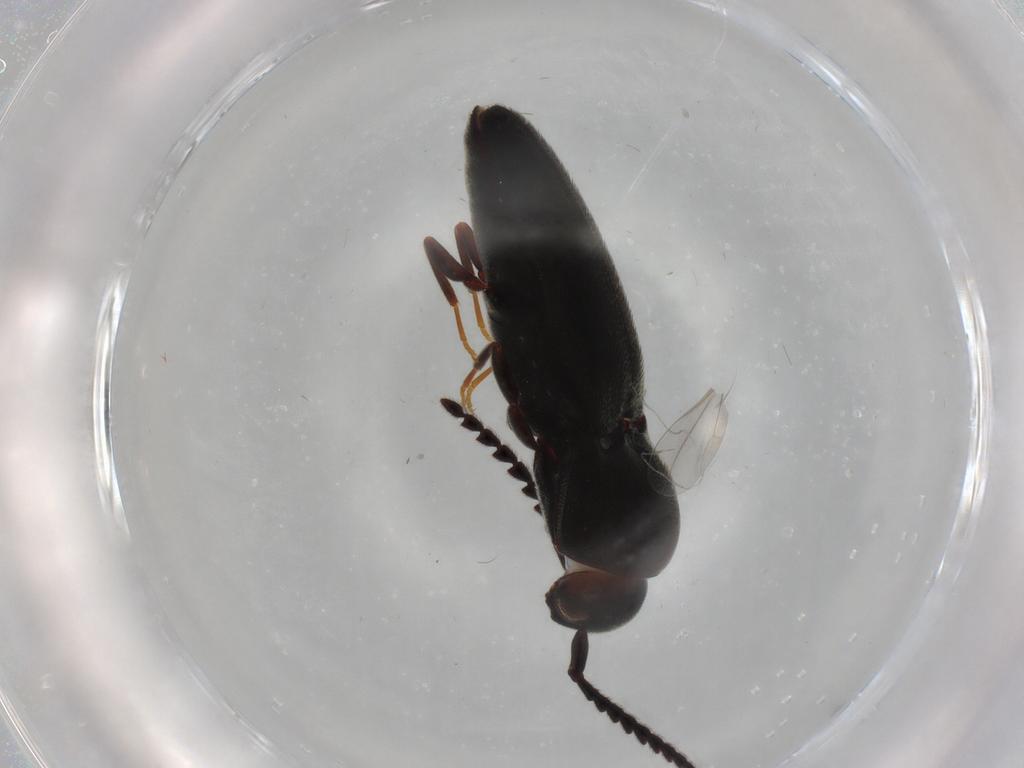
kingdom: Animalia
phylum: Arthropoda
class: Insecta
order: Coleoptera
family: Eucnemidae
